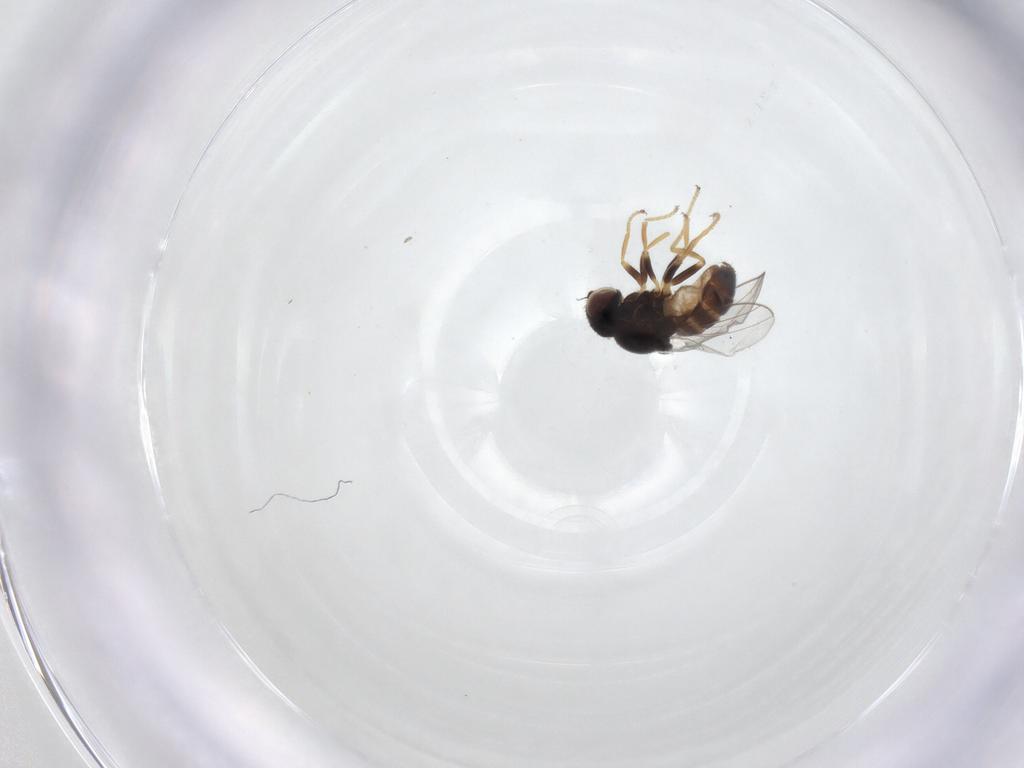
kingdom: Animalia
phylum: Arthropoda
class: Insecta
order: Diptera
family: Chloropidae
